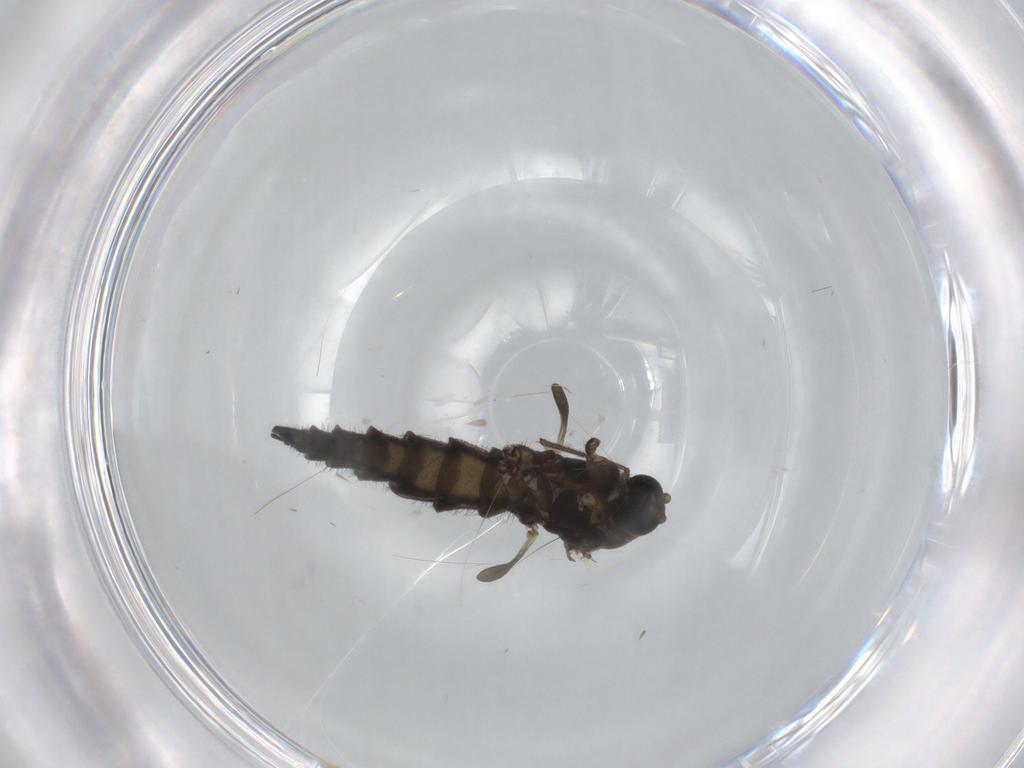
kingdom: Animalia
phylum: Arthropoda
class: Insecta
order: Diptera
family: Sciaridae
